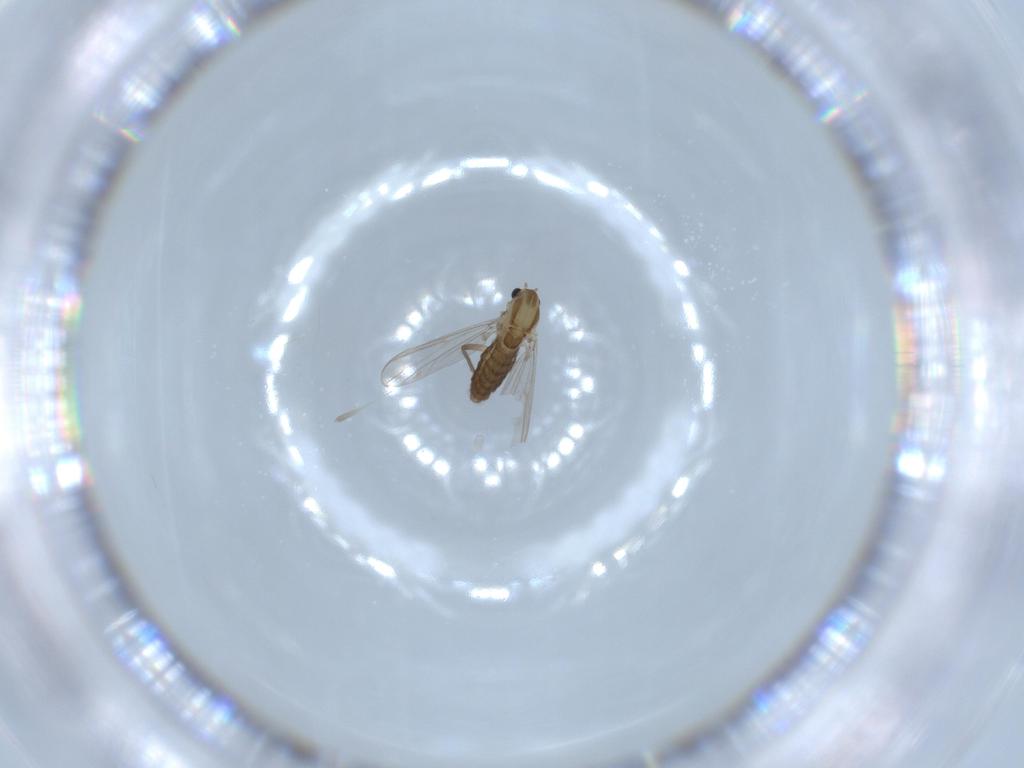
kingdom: Animalia
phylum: Arthropoda
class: Insecta
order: Diptera
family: Chironomidae
